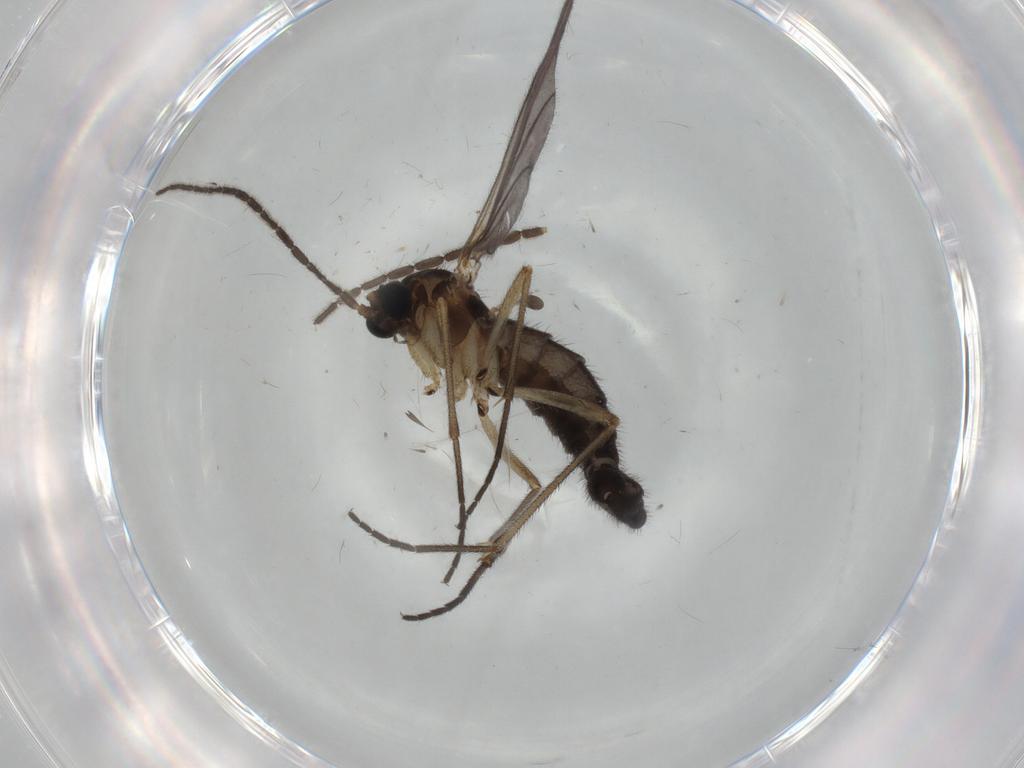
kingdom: Animalia
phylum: Arthropoda
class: Insecta
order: Diptera
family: Sciaridae
